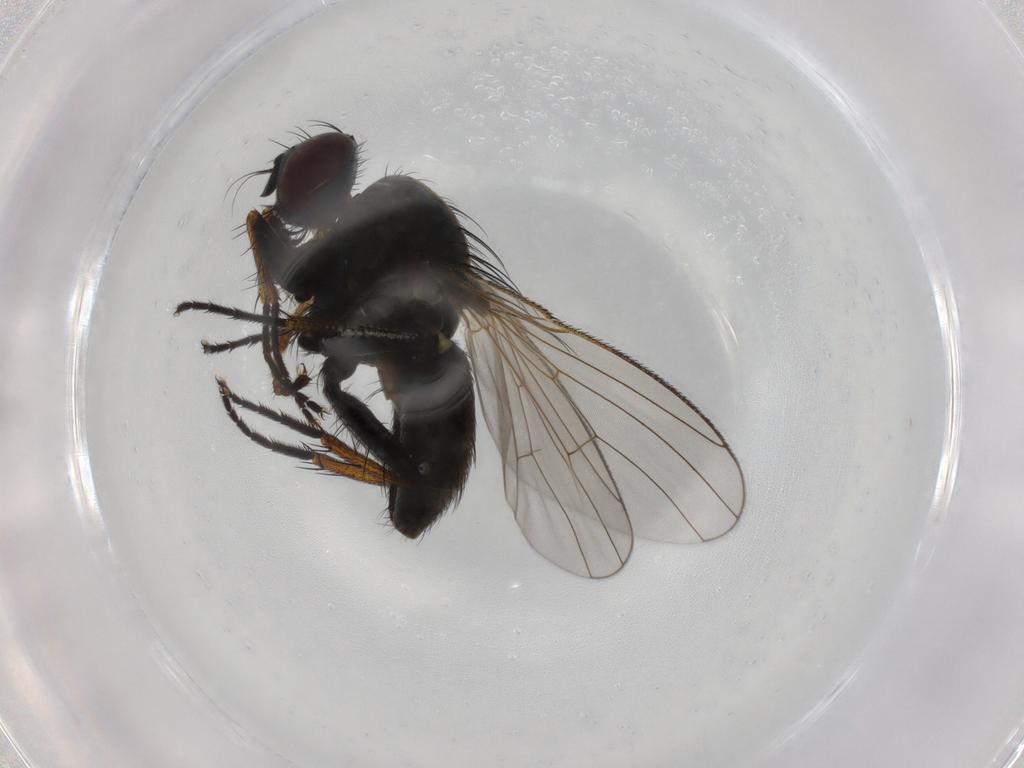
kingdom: Animalia
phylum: Arthropoda
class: Insecta
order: Diptera
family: Muscidae
